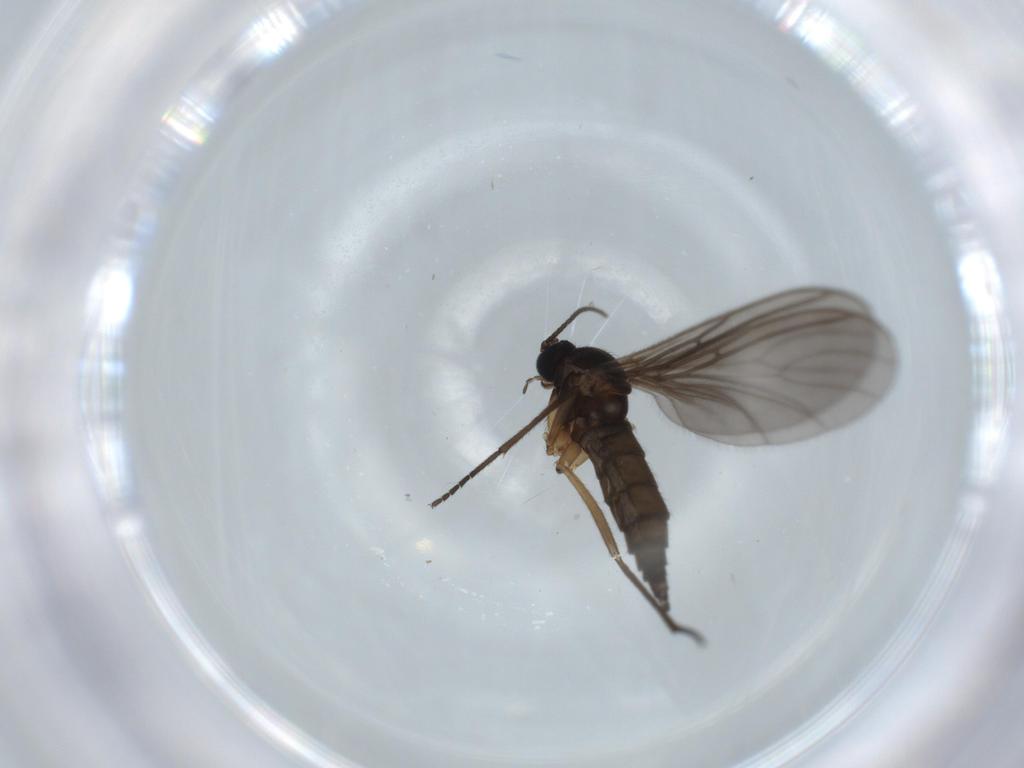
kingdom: Animalia
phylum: Arthropoda
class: Insecta
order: Diptera
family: Sciaridae
